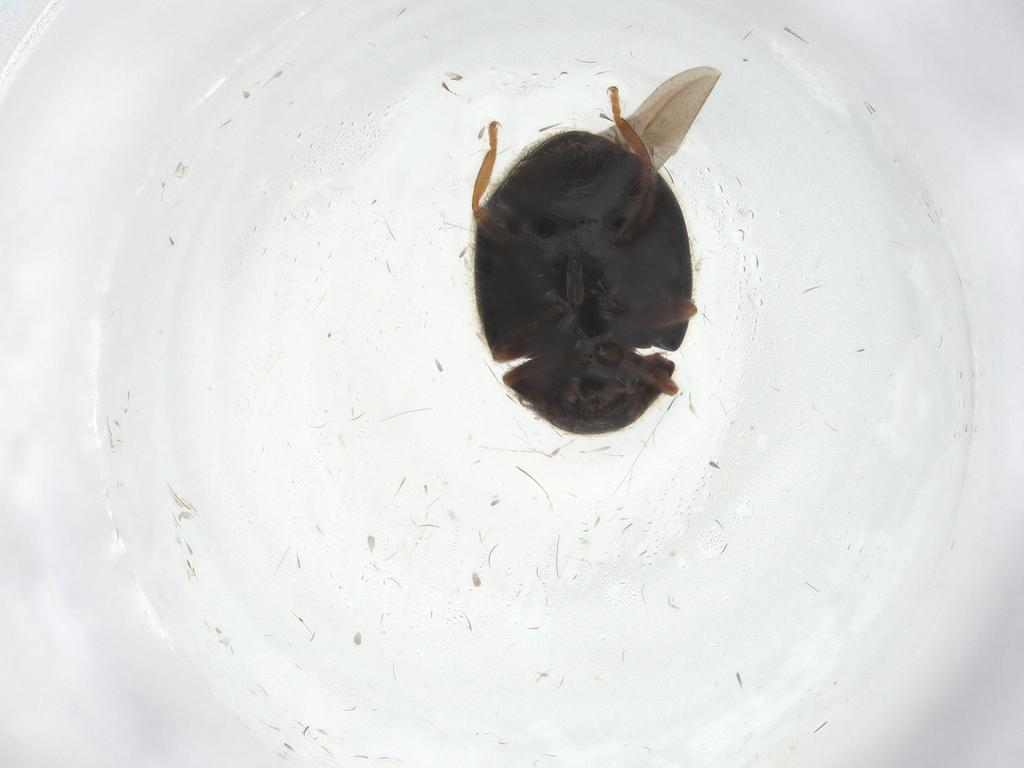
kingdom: Animalia
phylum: Arthropoda
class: Insecta
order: Coleoptera
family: Coccinellidae
